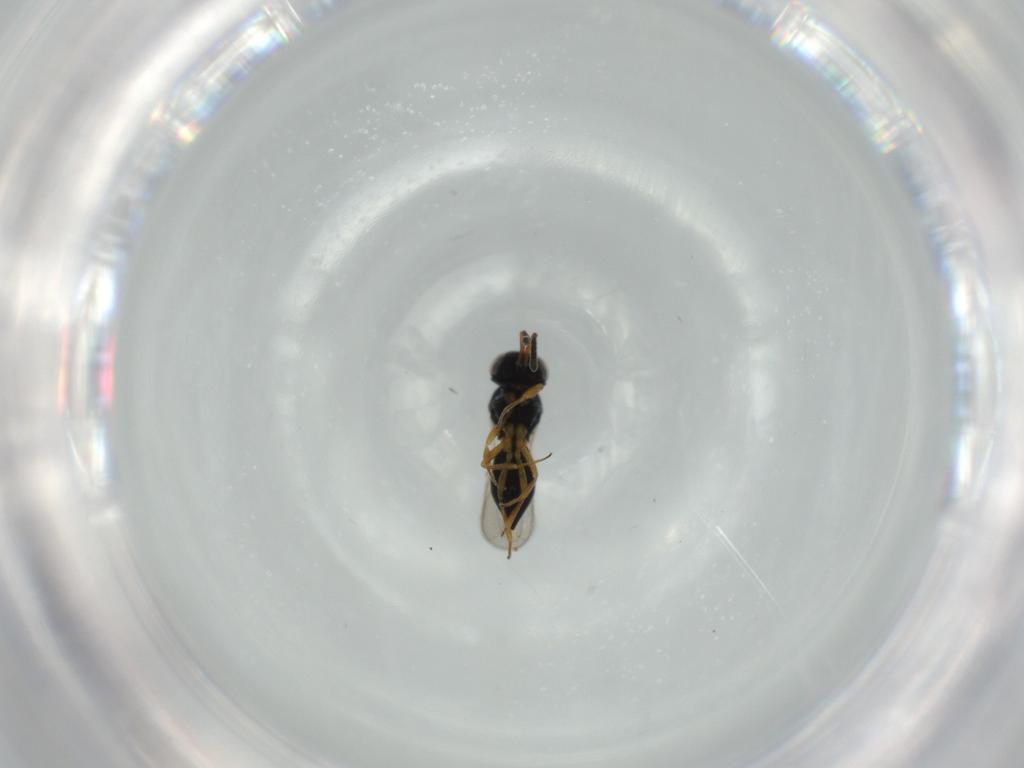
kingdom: Animalia
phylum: Arthropoda
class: Insecta
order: Hymenoptera
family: Scelionidae
